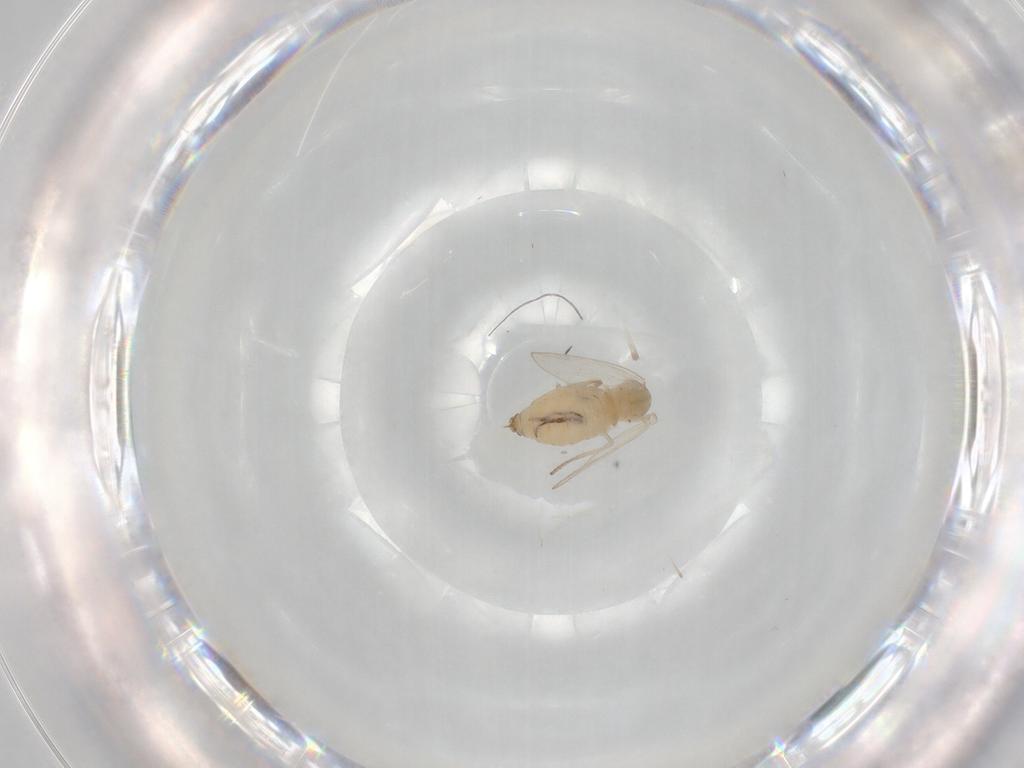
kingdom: Animalia
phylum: Arthropoda
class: Insecta
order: Diptera
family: Psychodidae
